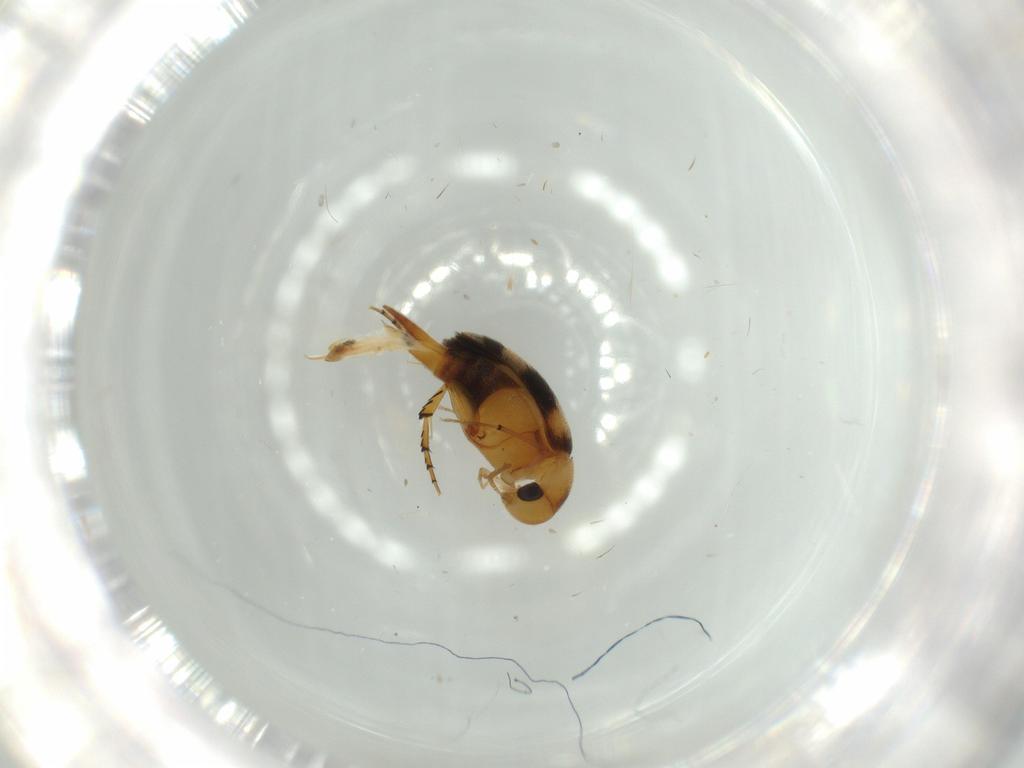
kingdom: Animalia
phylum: Arthropoda
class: Insecta
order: Coleoptera
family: Mordellidae
